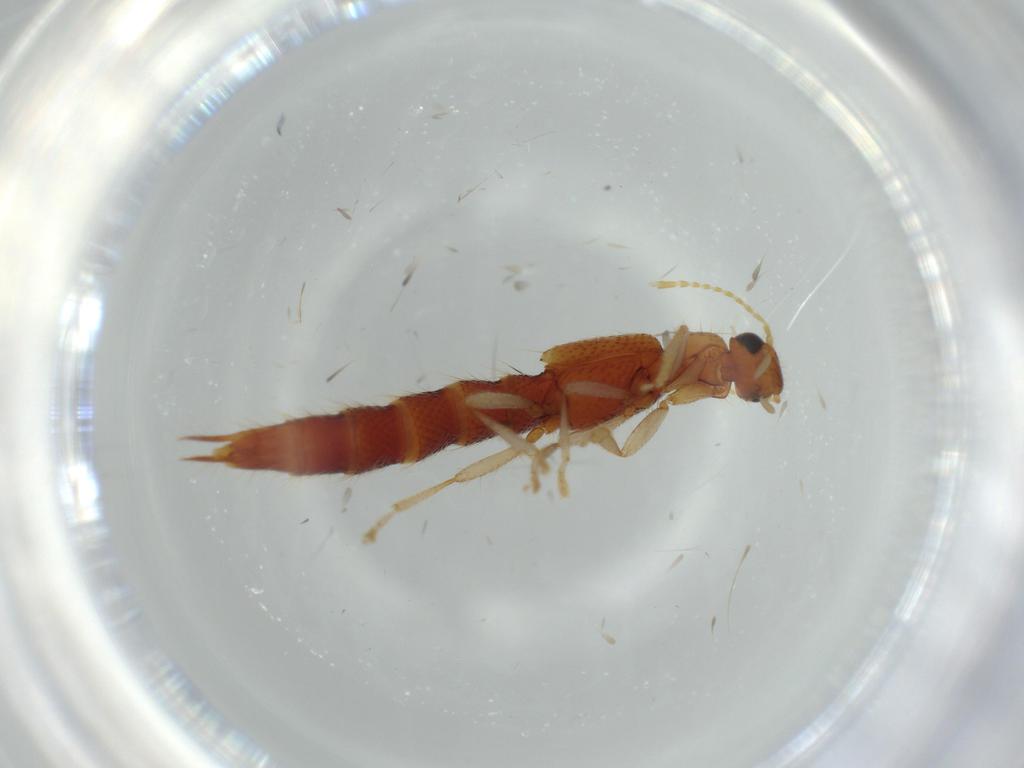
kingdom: Animalia
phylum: Arthropoda
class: Insecta
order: Coleoptera
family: Staphylinidae
